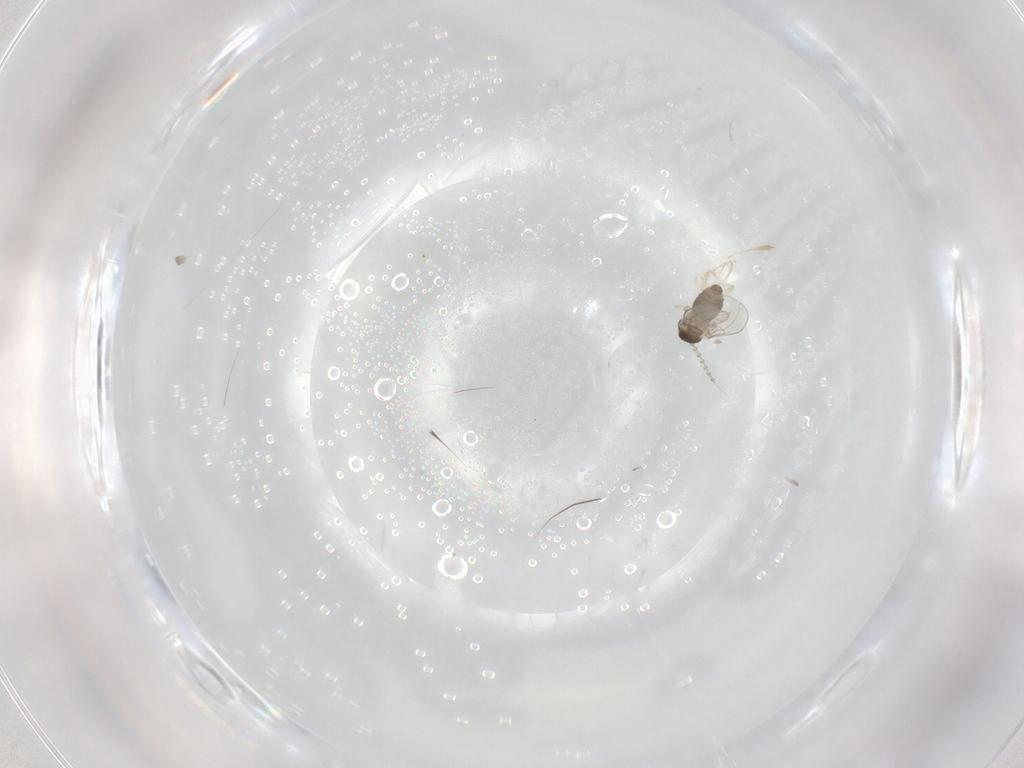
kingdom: Animalia
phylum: Arthropoda
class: Insecta
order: Diptera
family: Cecidomyiidae
